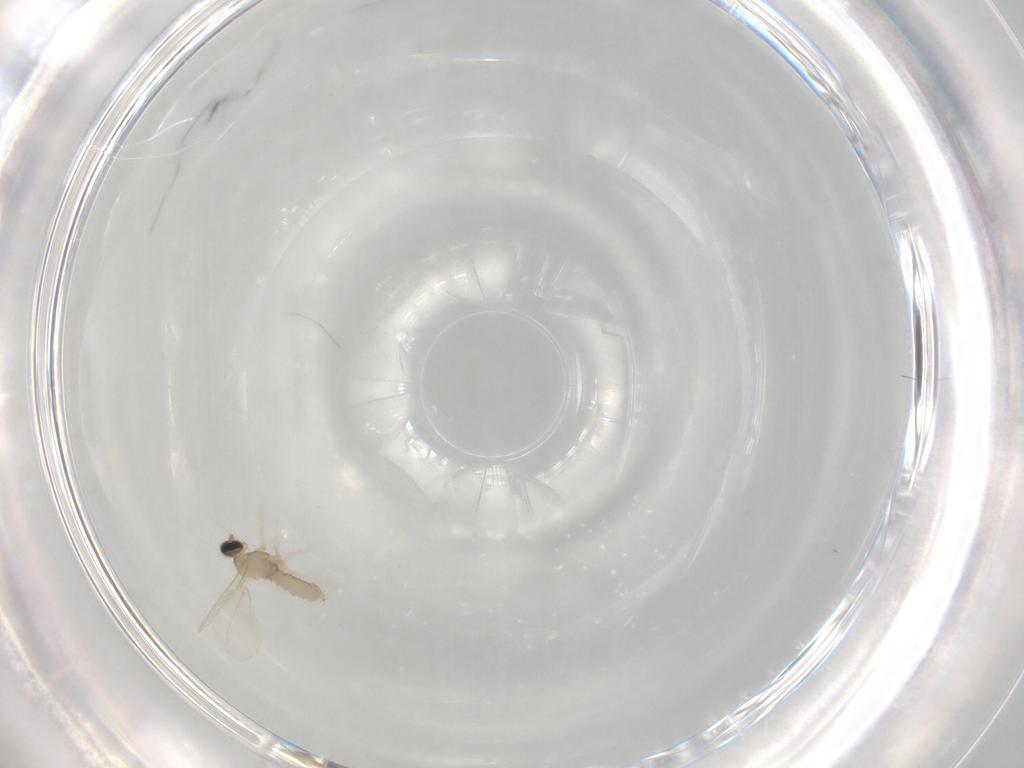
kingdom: Animalia
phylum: Arthropoda
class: Insecta
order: Diptera
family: Cecidomyiidae
